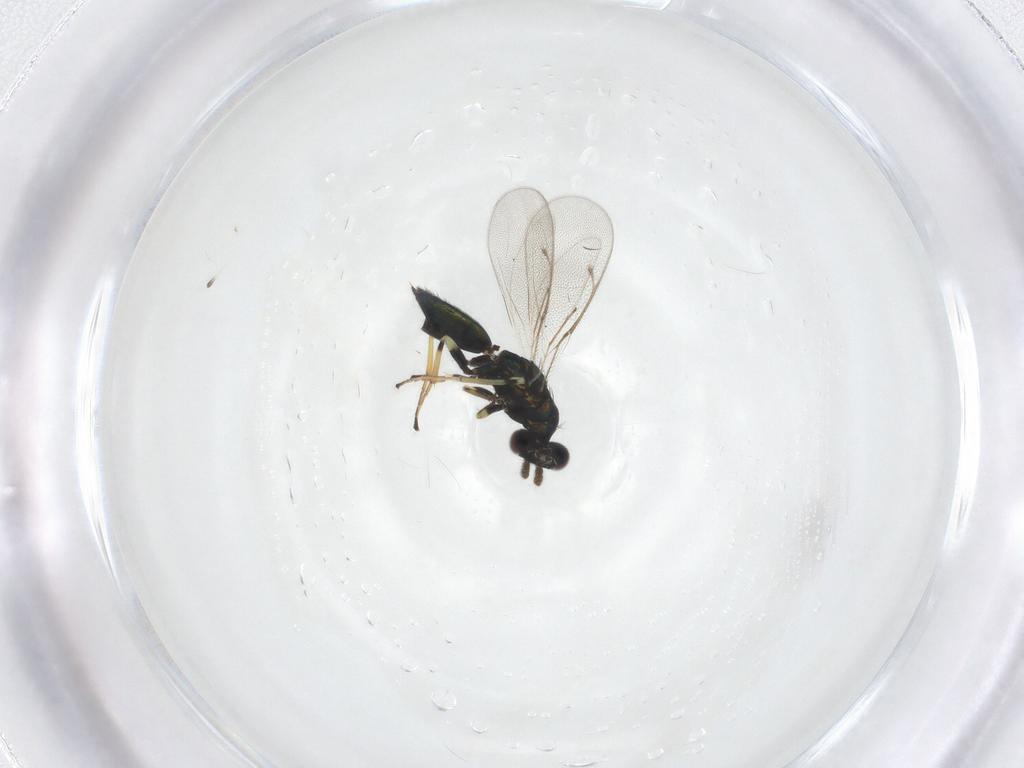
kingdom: Animalia
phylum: Arthropoda
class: Insecta
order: Hymenoptera
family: Eulophidae
